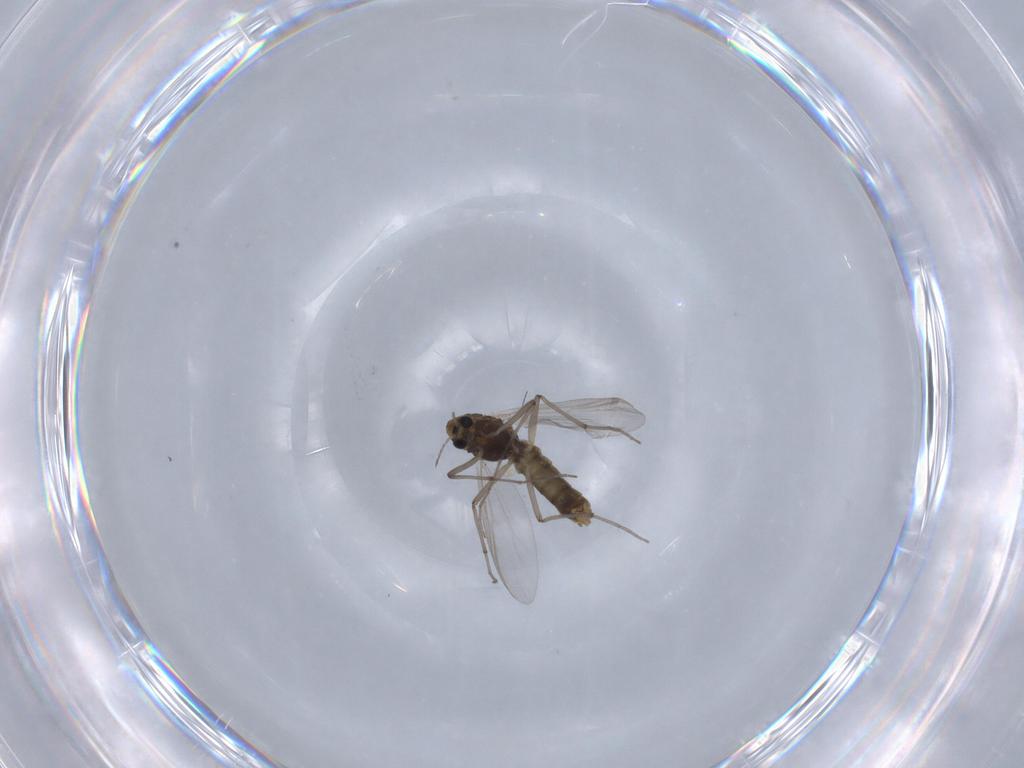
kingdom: Animalia
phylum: Arthropoda
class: Insecta
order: Diptera
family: Chironomidae
